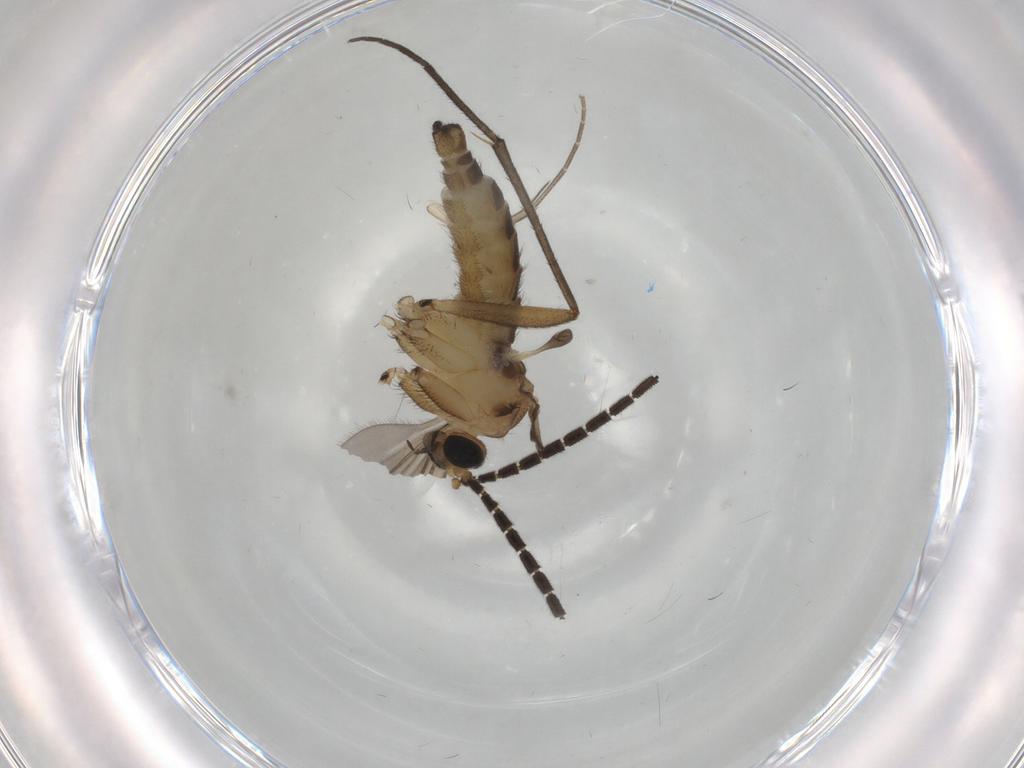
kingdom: Animalia
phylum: Arthropoda
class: Insecta
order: Diptera
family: Mycetophilidae
